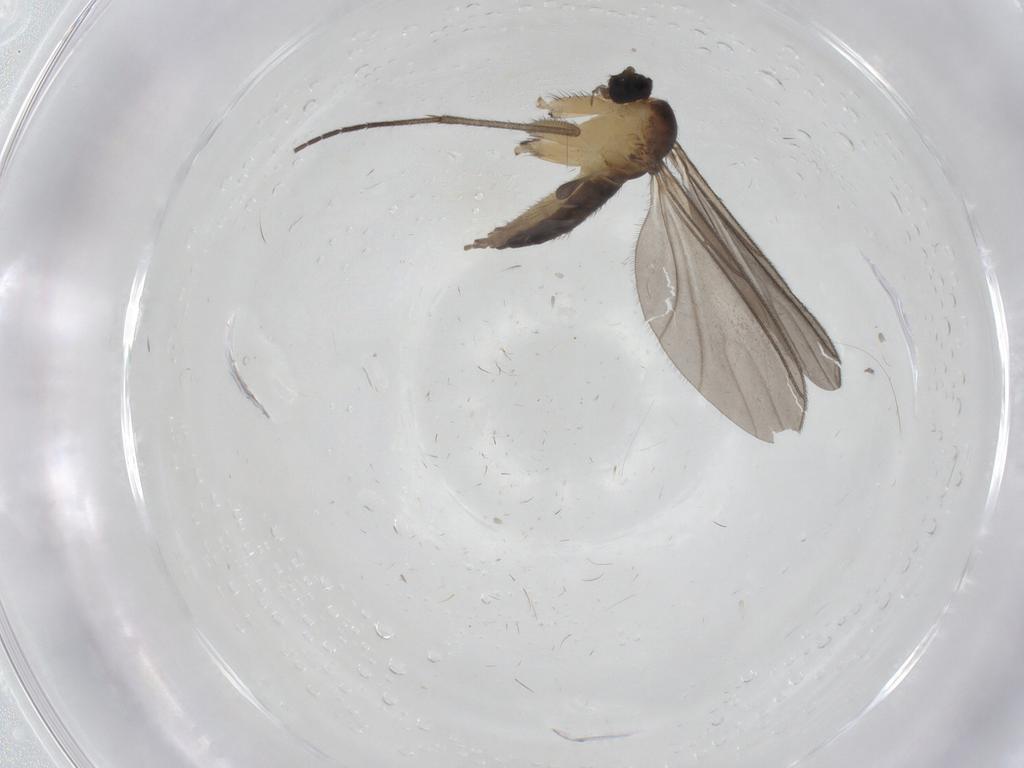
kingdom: Animalia
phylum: Arthropoda
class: Insecta
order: Diptera
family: Sciaridae
